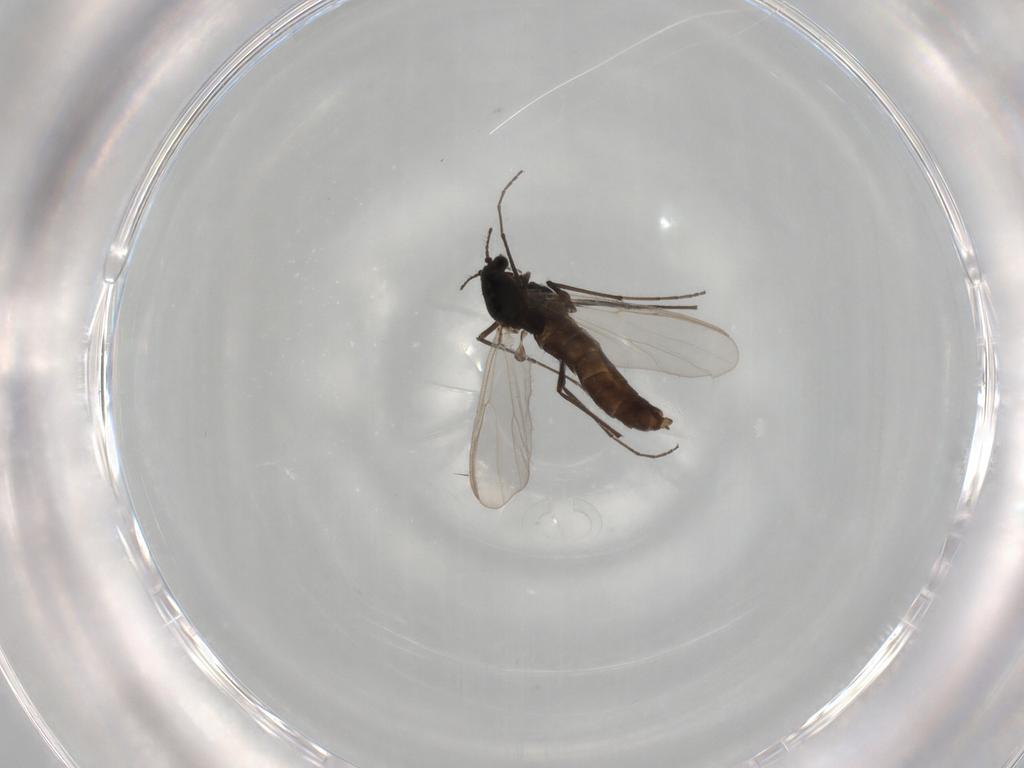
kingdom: Animalia
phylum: Arthropoda
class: Insecta
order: Diptera
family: Chironomidae
